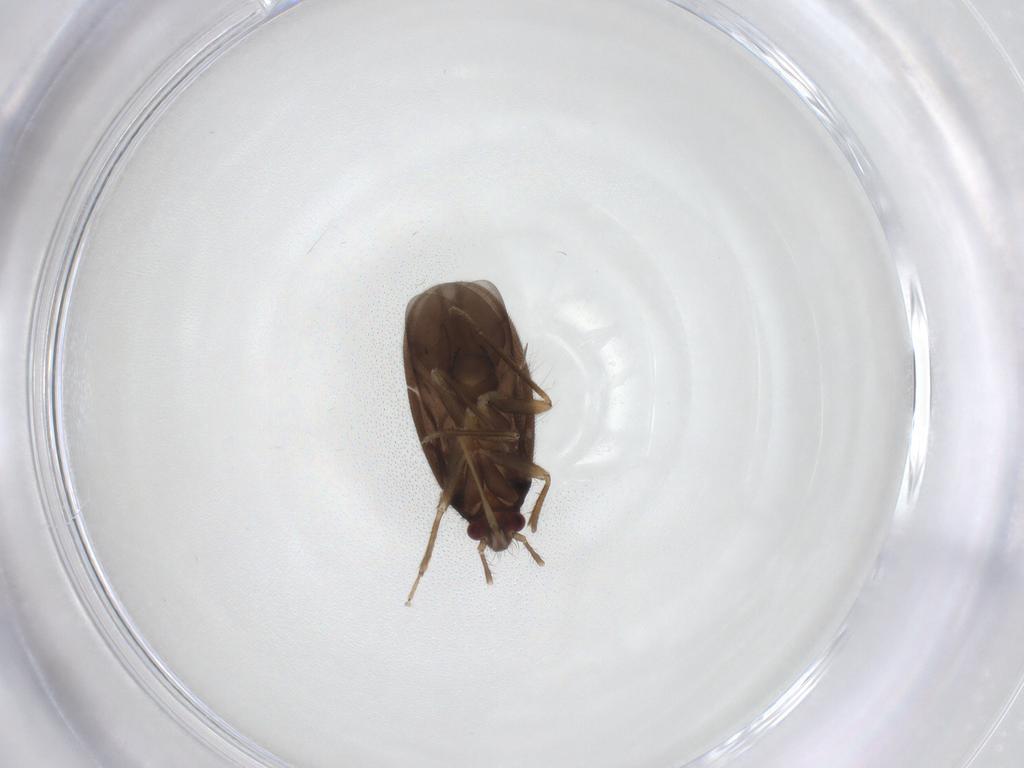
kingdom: Animalia
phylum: Arthropoda
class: Insecta
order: Hemiptera
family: Ceratocombidae
